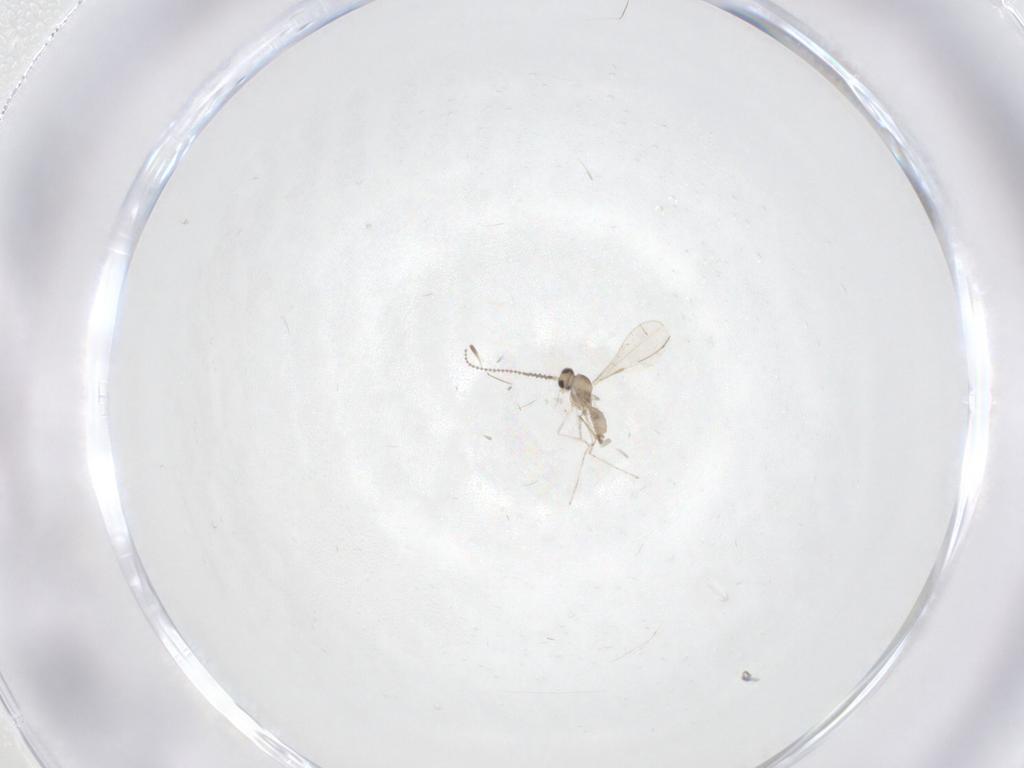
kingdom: Animalia
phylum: Arthropoda
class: Insecta
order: Diptera
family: Cecidomyiidae
